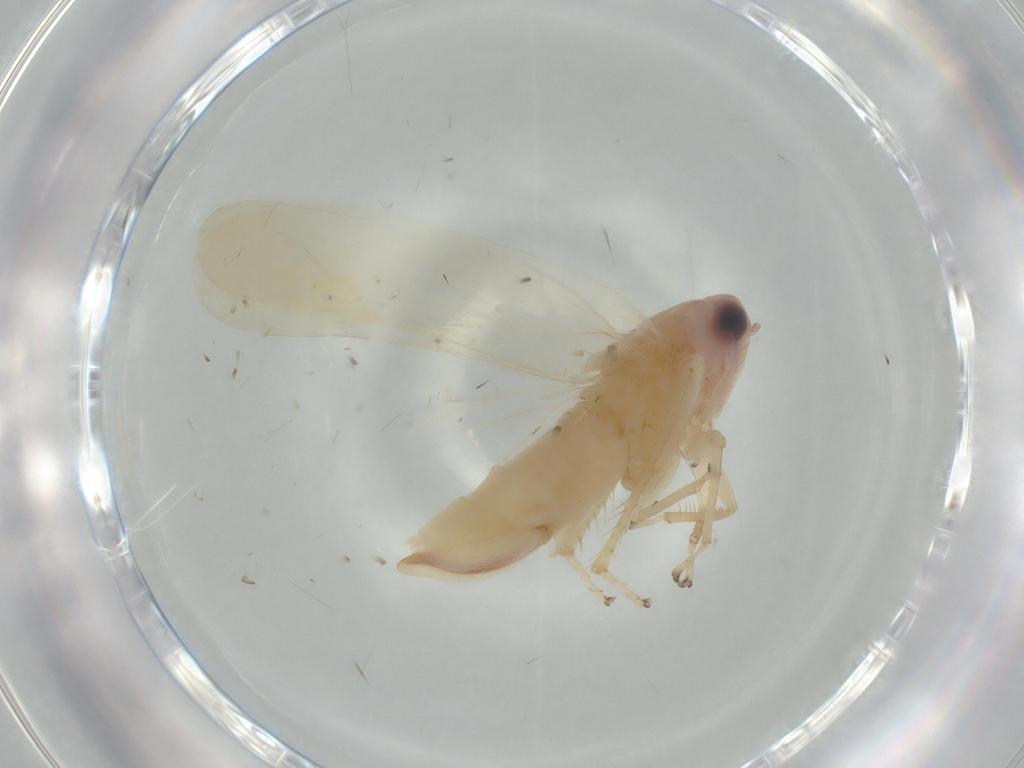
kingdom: Animalia
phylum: Arthropoda
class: Insecta
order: Hemiptera
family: Cicadellidae
